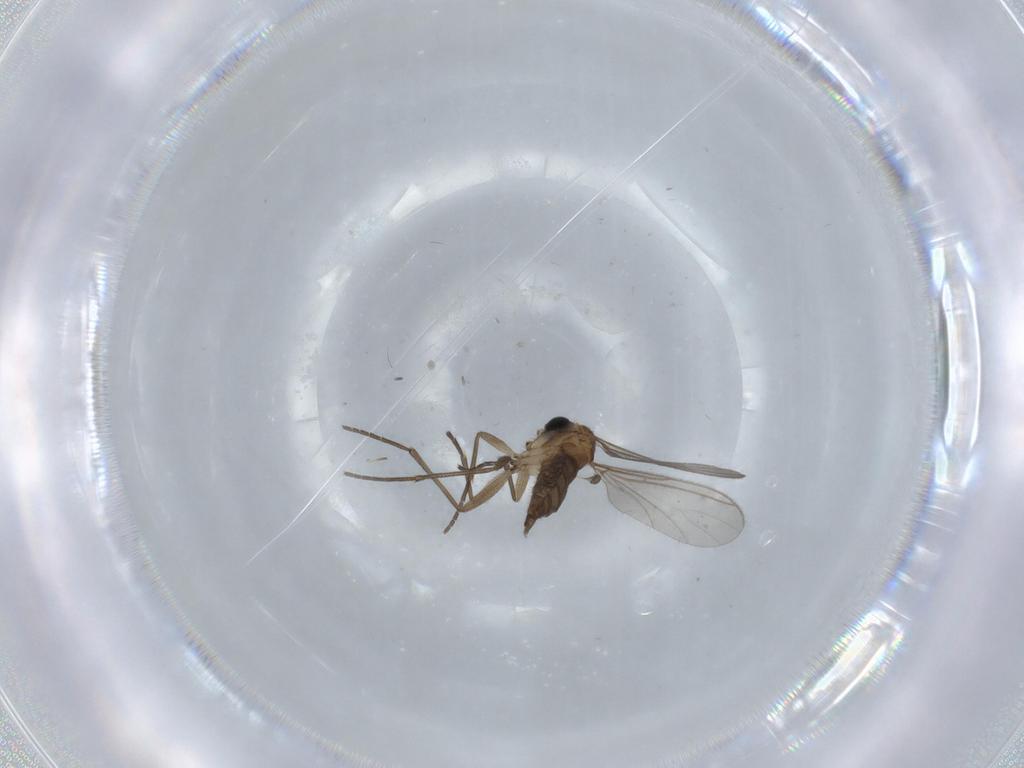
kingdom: Animalia
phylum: Arthropoda
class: Insecta
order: Diptera
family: Sciaridae
